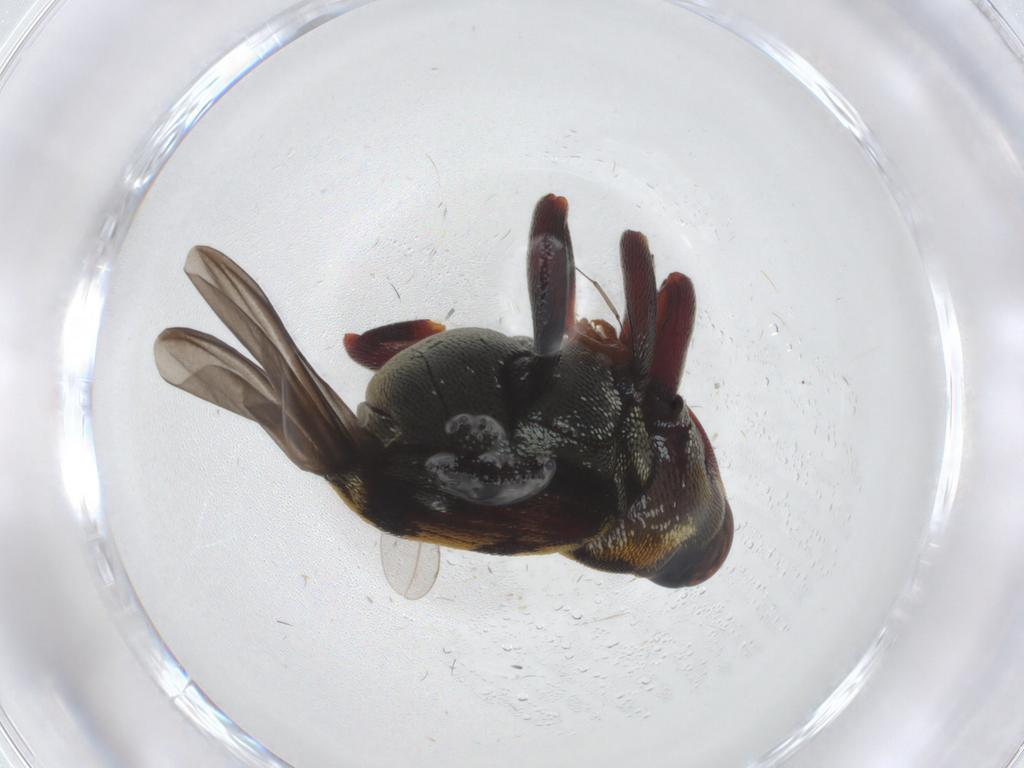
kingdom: Animalia
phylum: Arthropoda
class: Insecta
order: Coleoptera
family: Curculionidae
